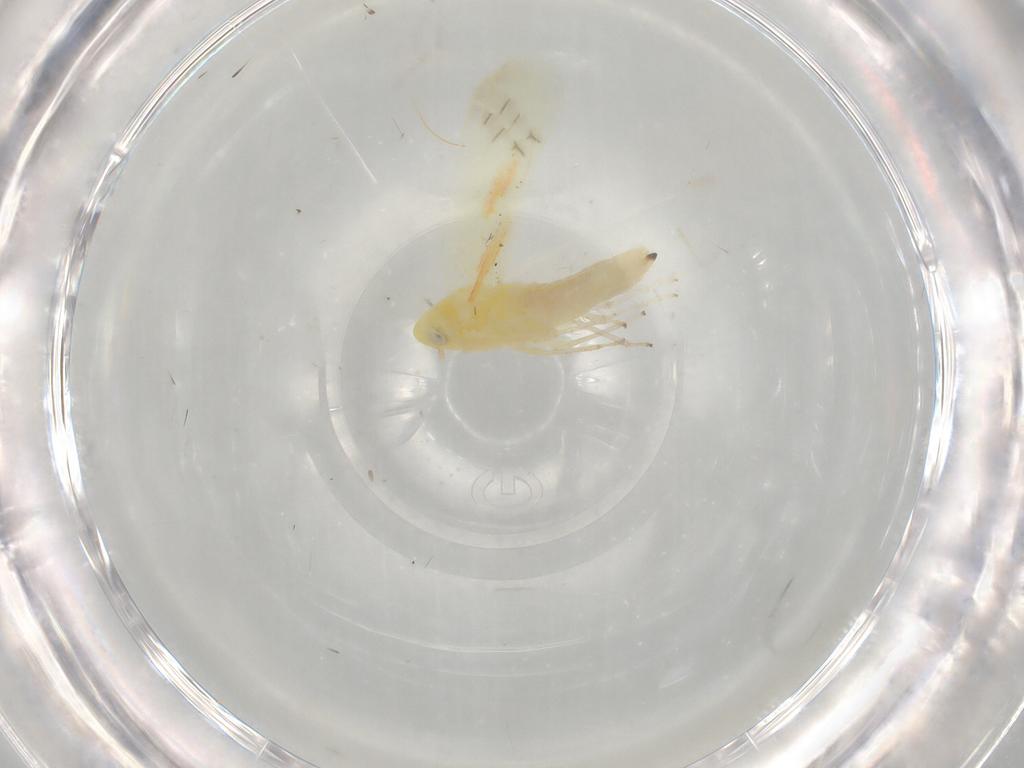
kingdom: Animalia
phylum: Arthropoda
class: Insecta
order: Hemiptera
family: Cicadellidae
